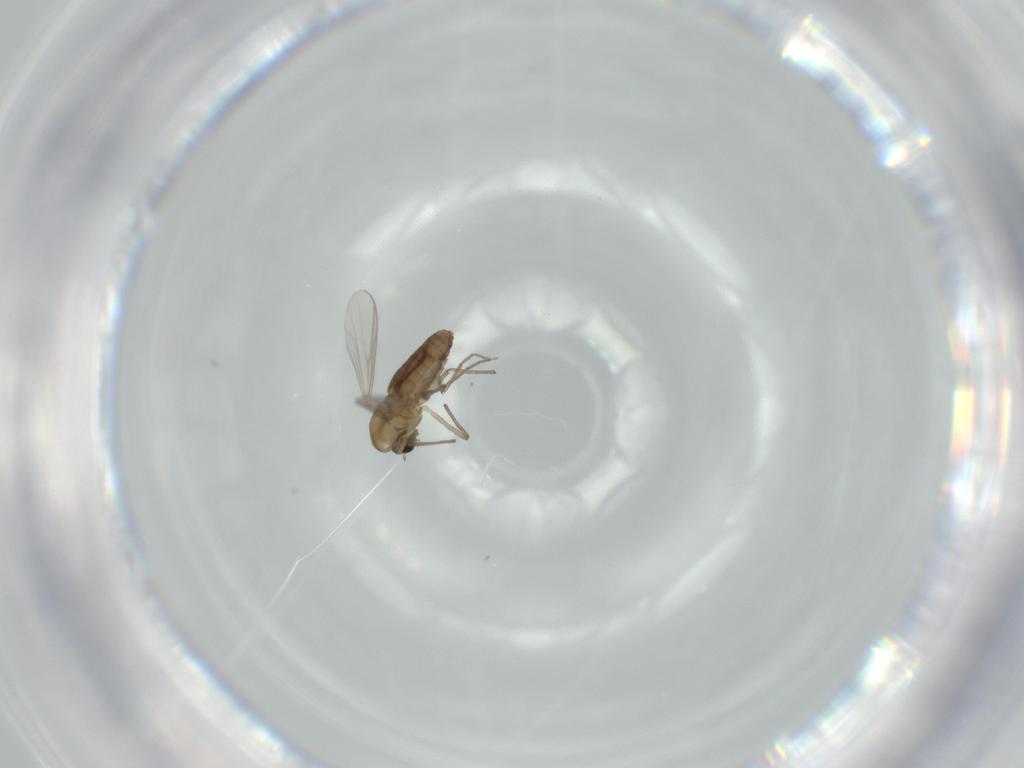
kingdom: Animalia
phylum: Arthropoda
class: Insecta
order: Diptera
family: Chironomidae
